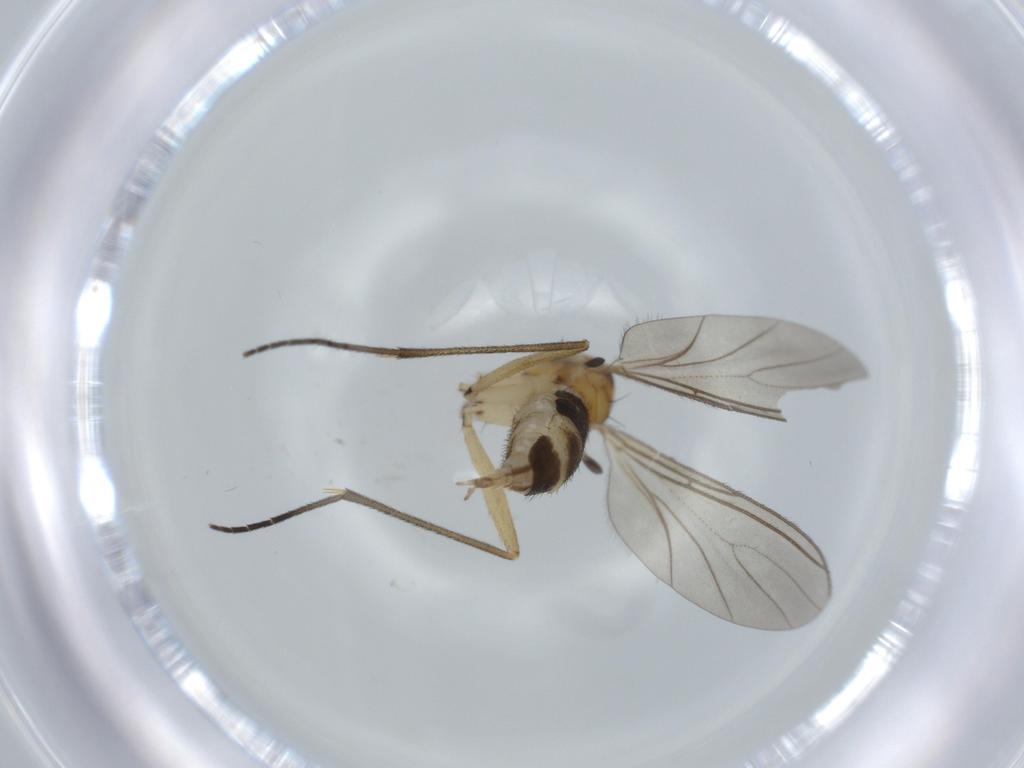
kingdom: Animalia
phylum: Arthropoda
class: Insecta
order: Diptera
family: Sciaridae
